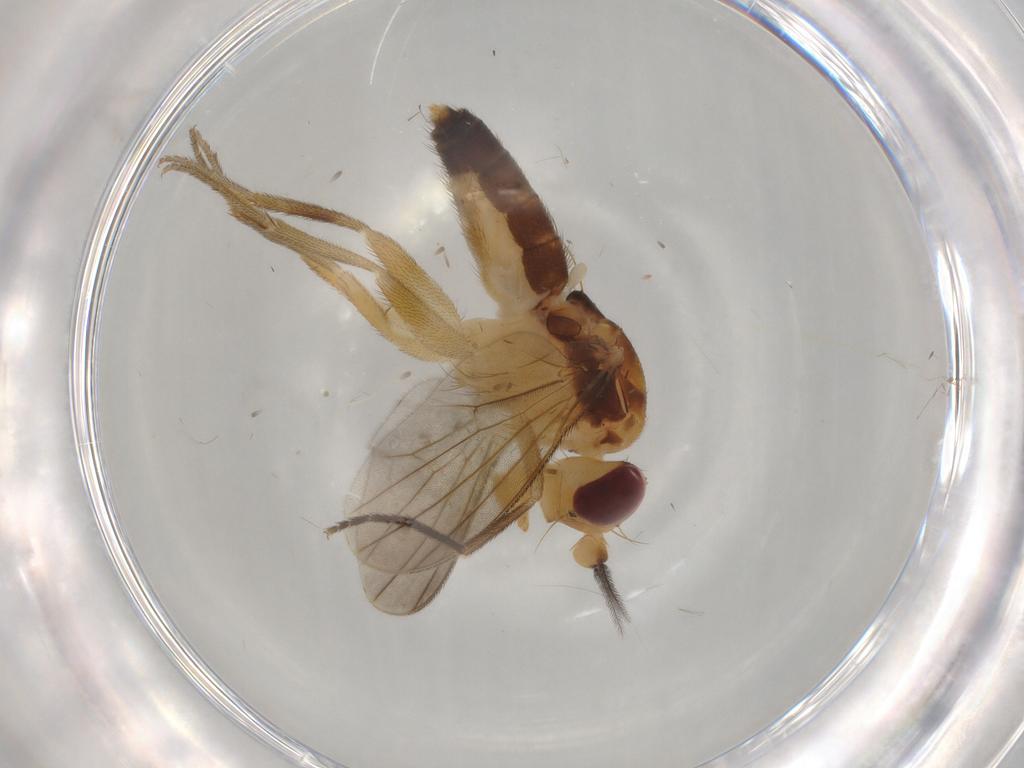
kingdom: Animalia
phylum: Arthropoda
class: Insecta
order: Diptera
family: Clusiidae
